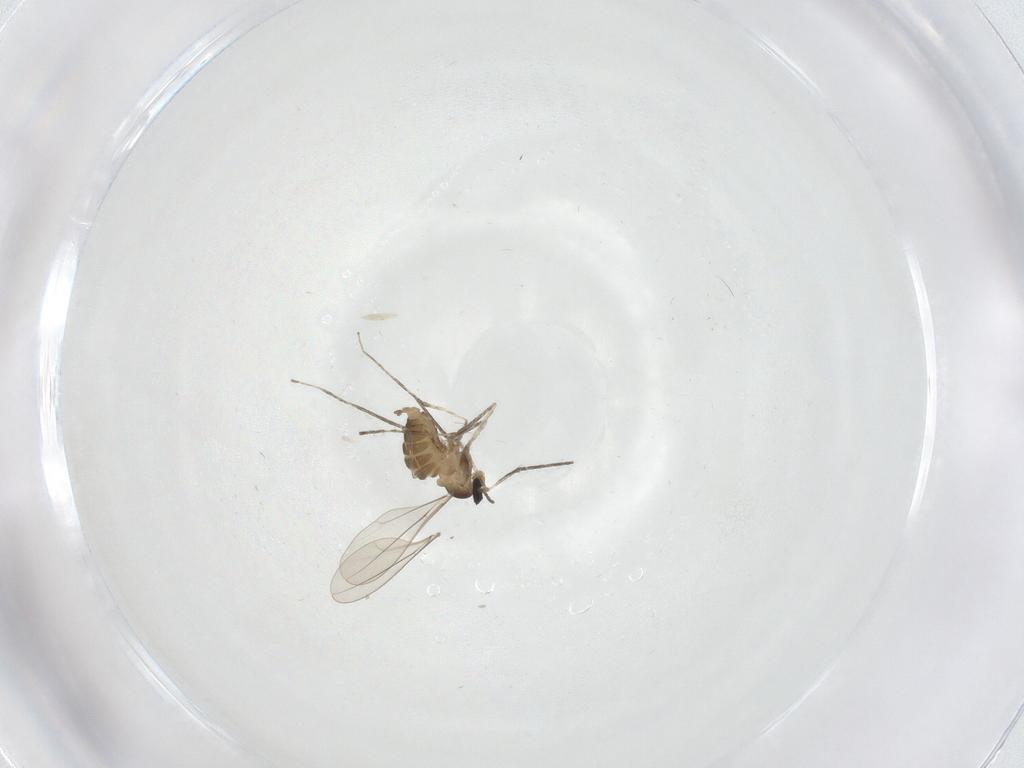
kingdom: Animalia
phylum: Arthropoda
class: Insecta
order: Diptera
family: Cecidomyiidae
